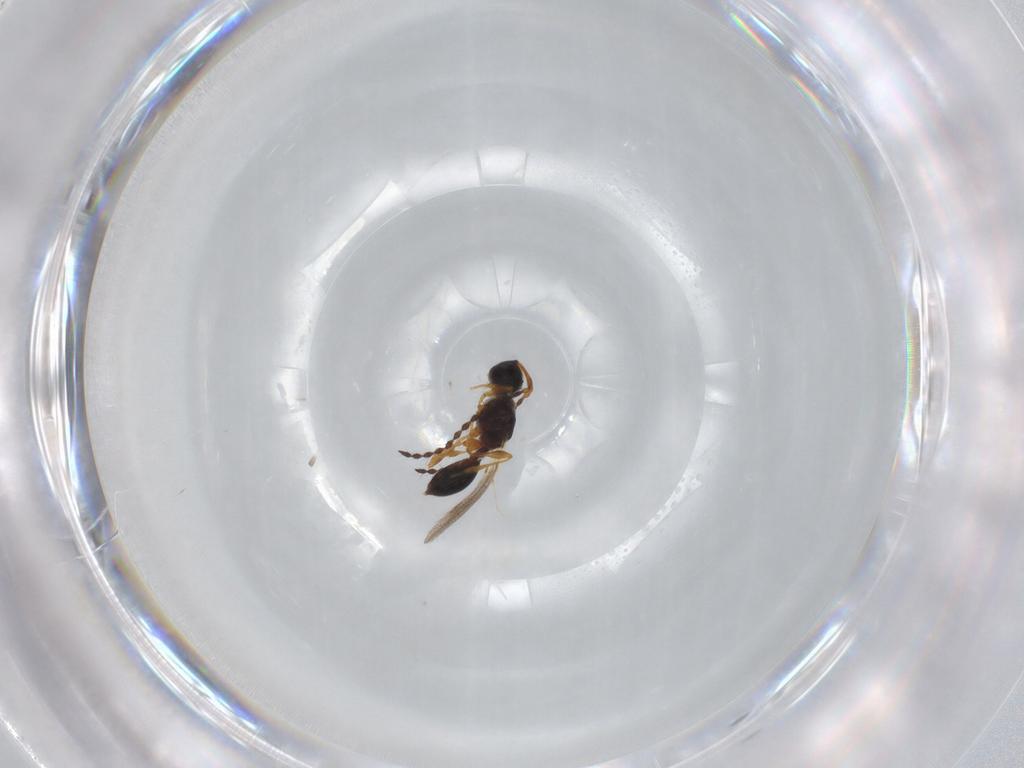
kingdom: Animalia
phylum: Arthropoda
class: Insecta
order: Hymenoptera
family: Diapriidae
